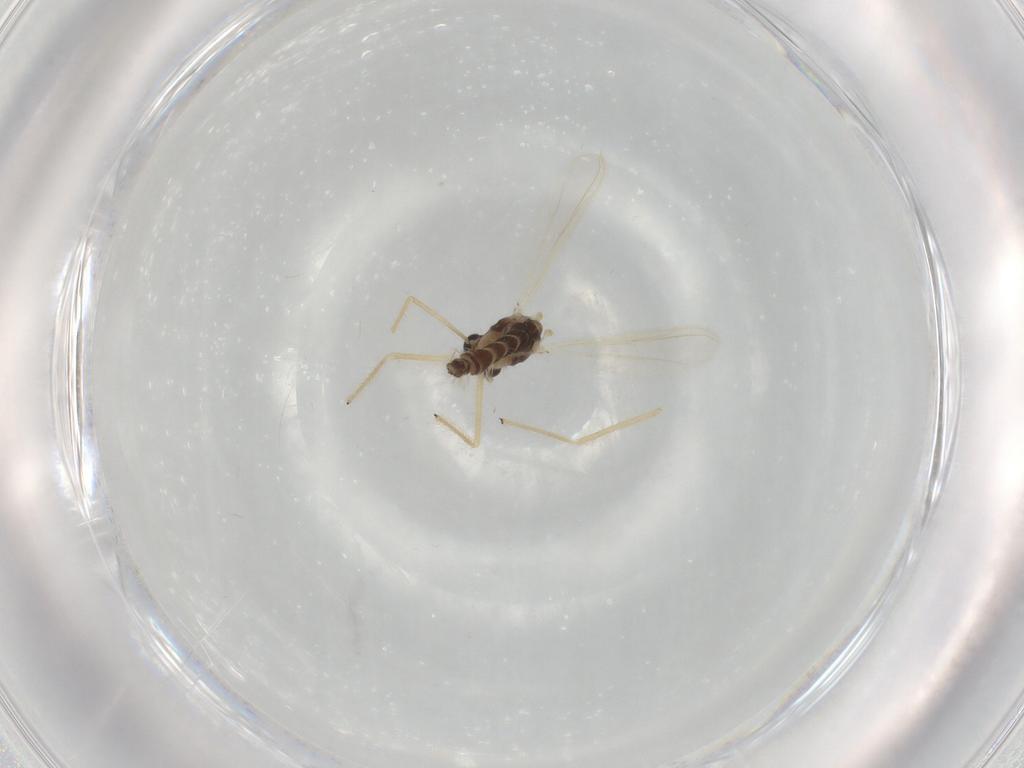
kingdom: Animalia
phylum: Arthropoda
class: Insecta
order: Diptera
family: Chironomidae
